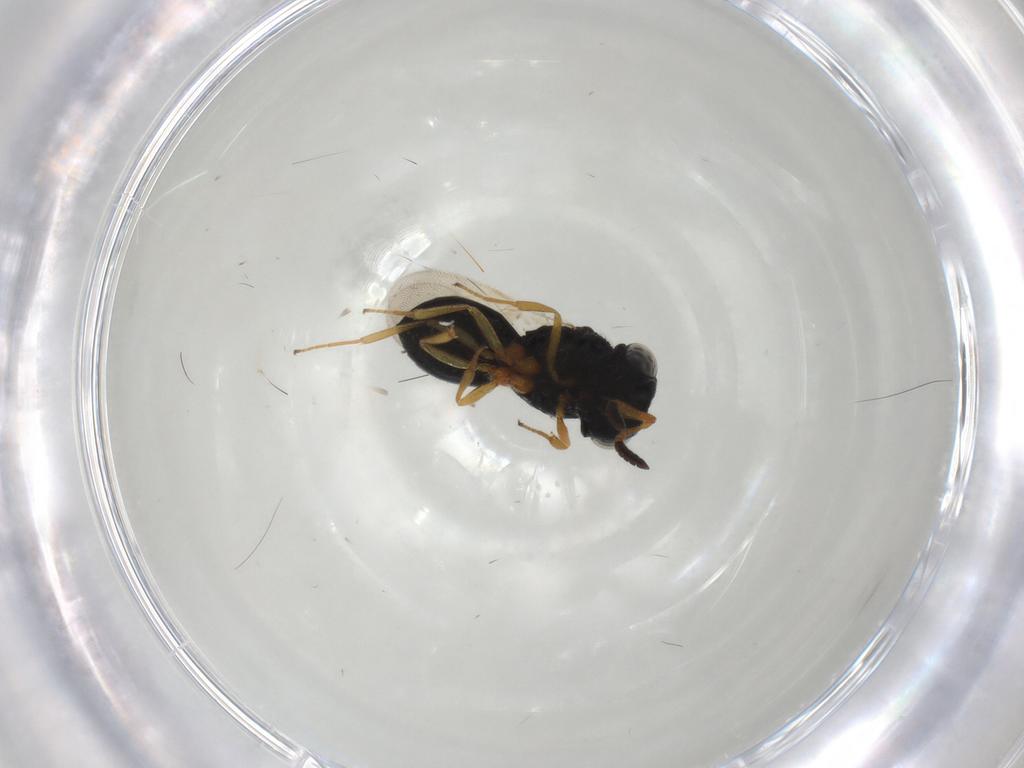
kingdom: Animalia
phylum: Arthropoda
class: Insecta
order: Hymenoptera
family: Scelionidae
